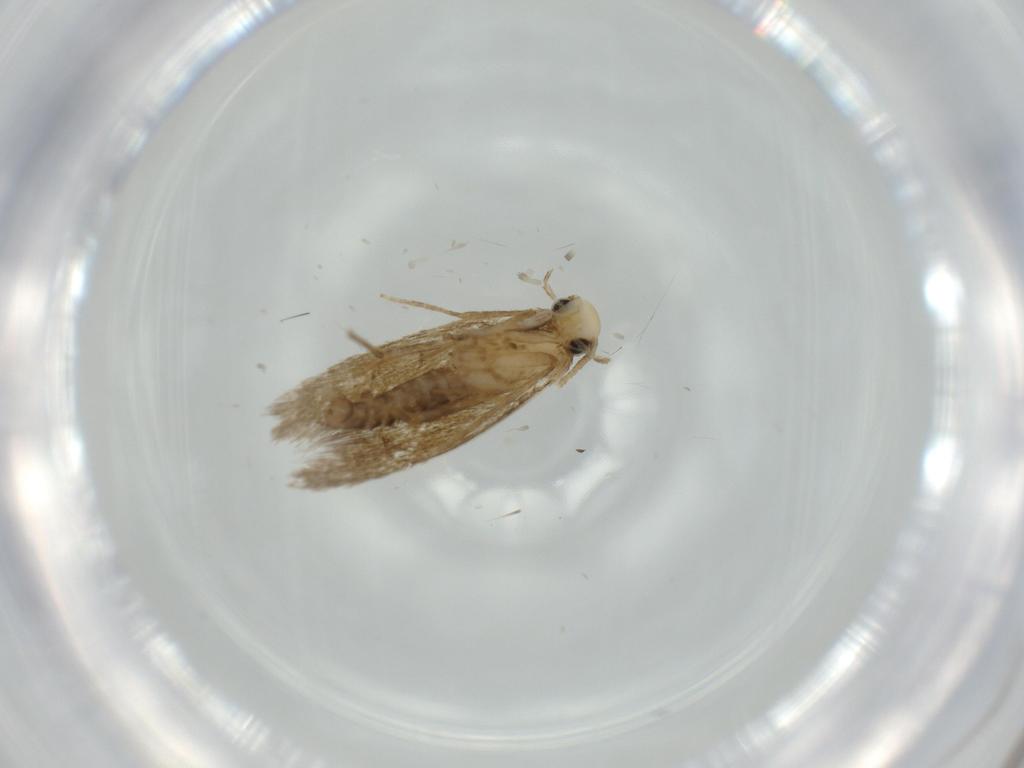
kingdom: Animalia
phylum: Arthropoda
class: Insecta
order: Lepidoptera
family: Tineidae
